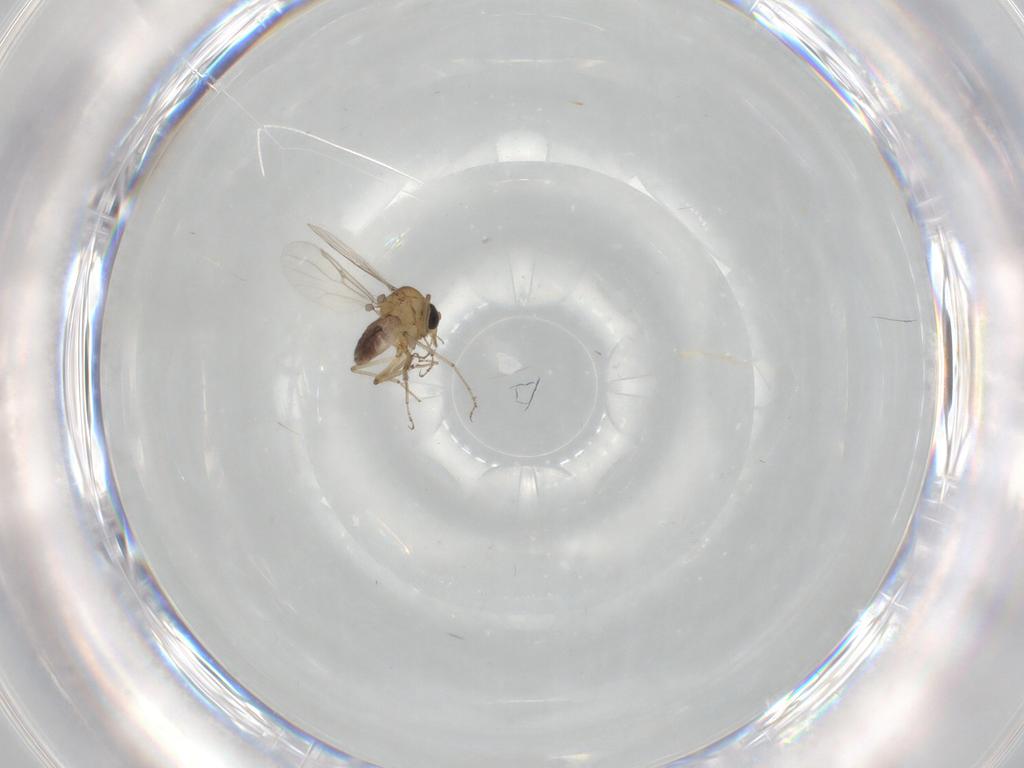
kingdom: Animalia
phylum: Arthropoda
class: Insecta
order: Diptera
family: Ceratopogonidae
